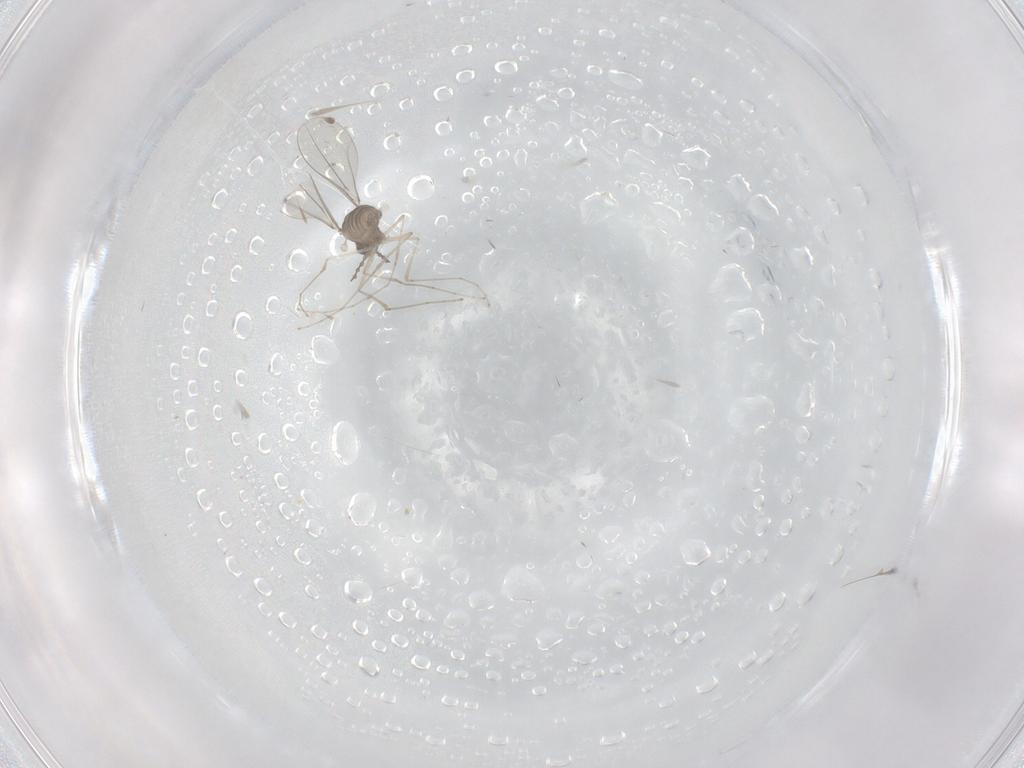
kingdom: Animalia
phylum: Arthropoda
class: Insecta
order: Diptera
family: Cecidomyiidae
